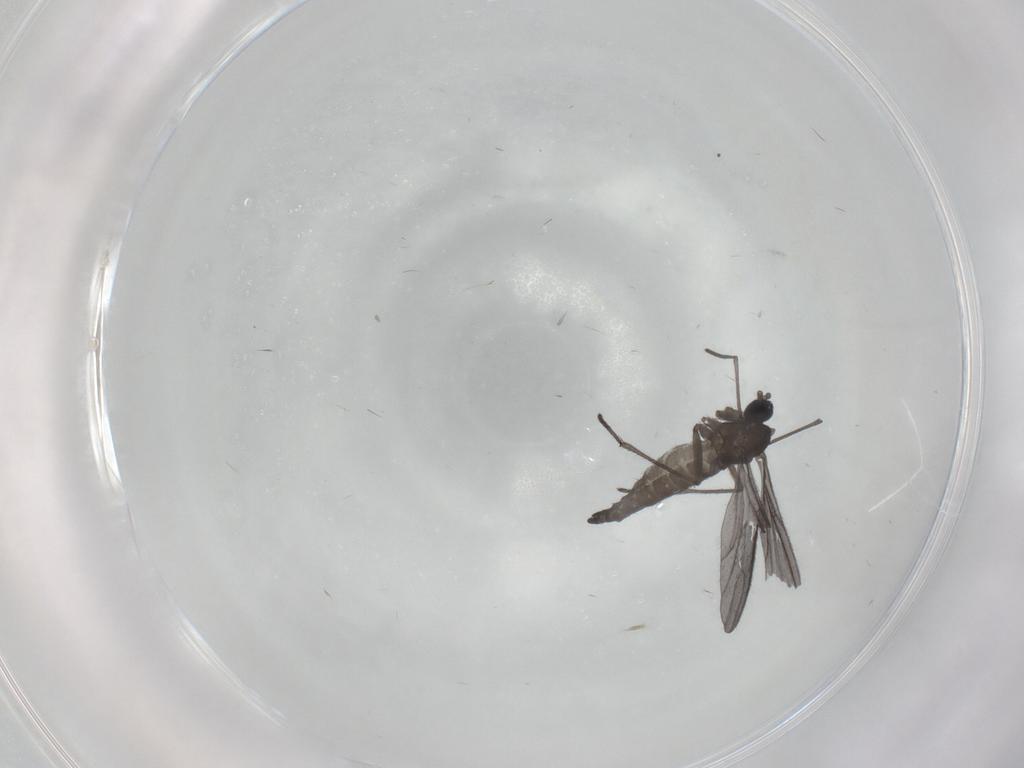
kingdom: Animalia
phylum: Arthropoda
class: Insecta
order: Diptera
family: Sciaridae
